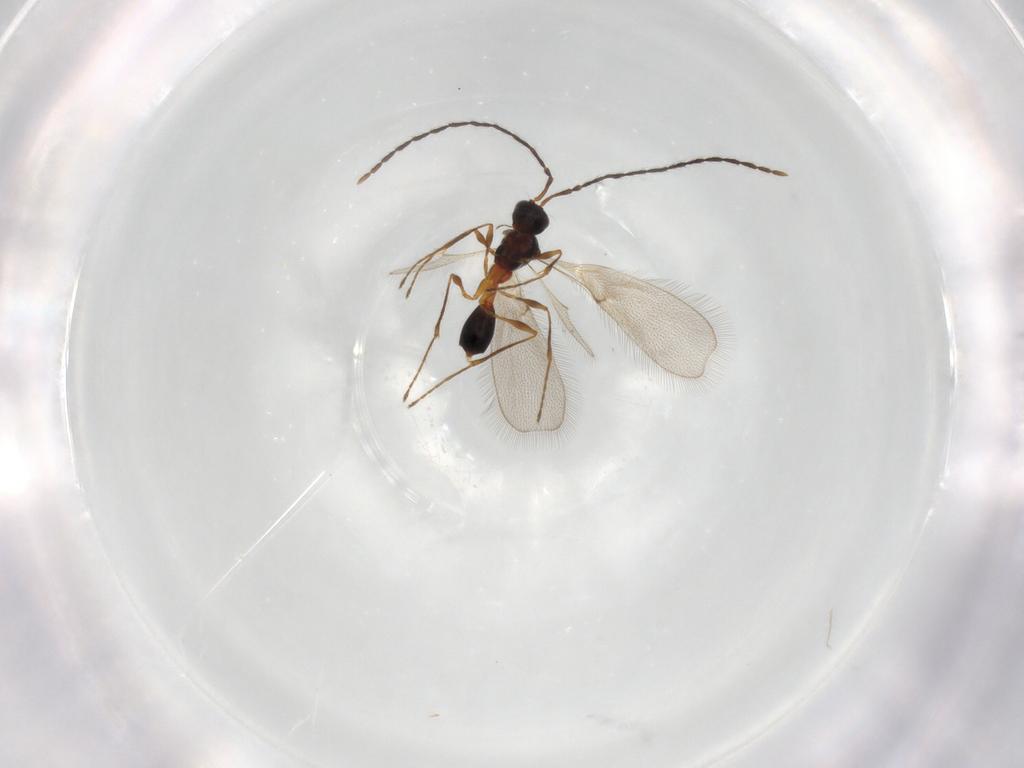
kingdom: Animalia
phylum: Arthropoda
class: Insecta
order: Hymenoptera
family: Diapriidae
